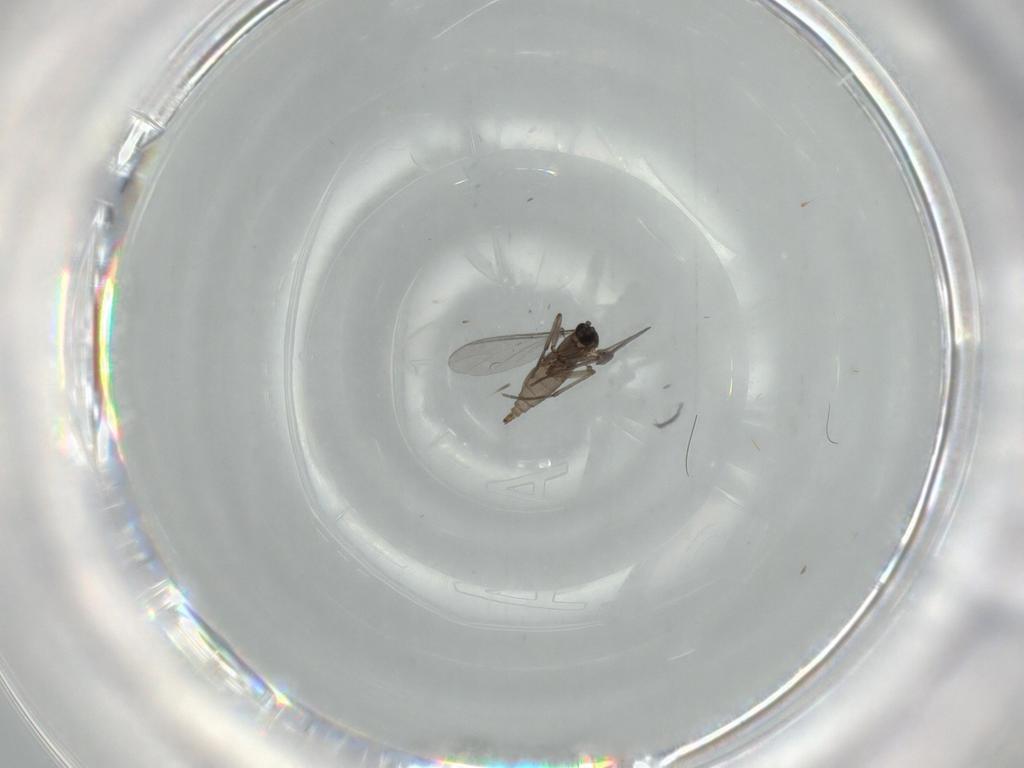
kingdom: Animalia
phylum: Arthropoda
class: Insecta
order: Diptera
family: Sciaridae
